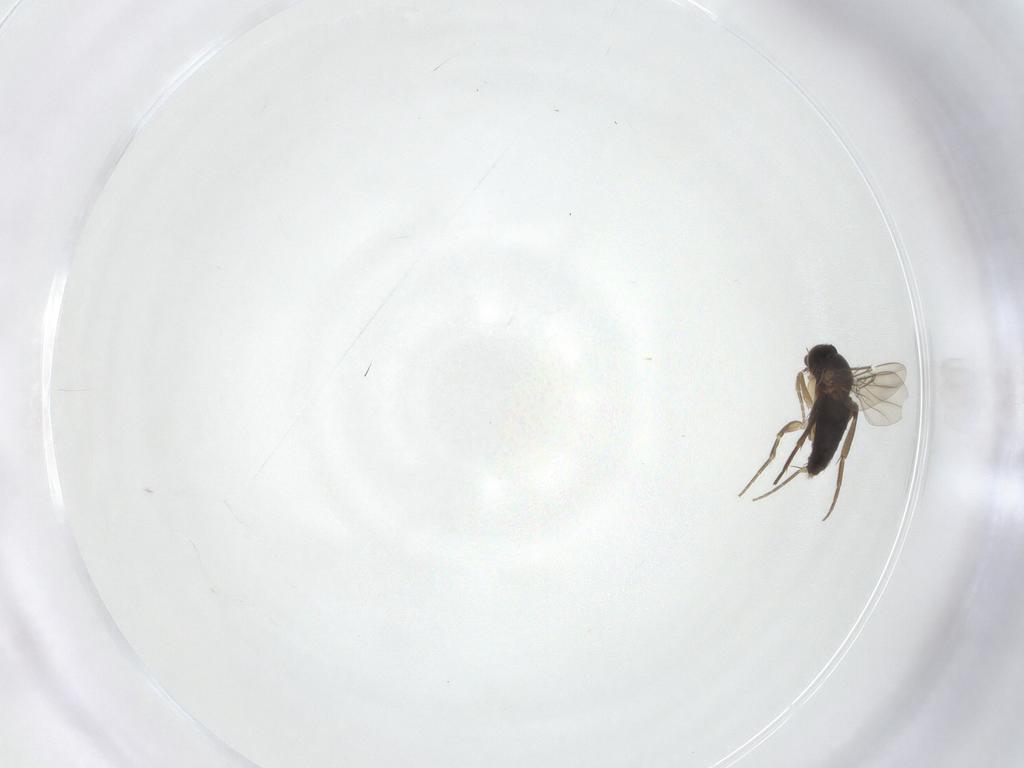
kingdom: Animalia
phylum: Arthropoda
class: Insecta
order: Diptera
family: Phoridae
